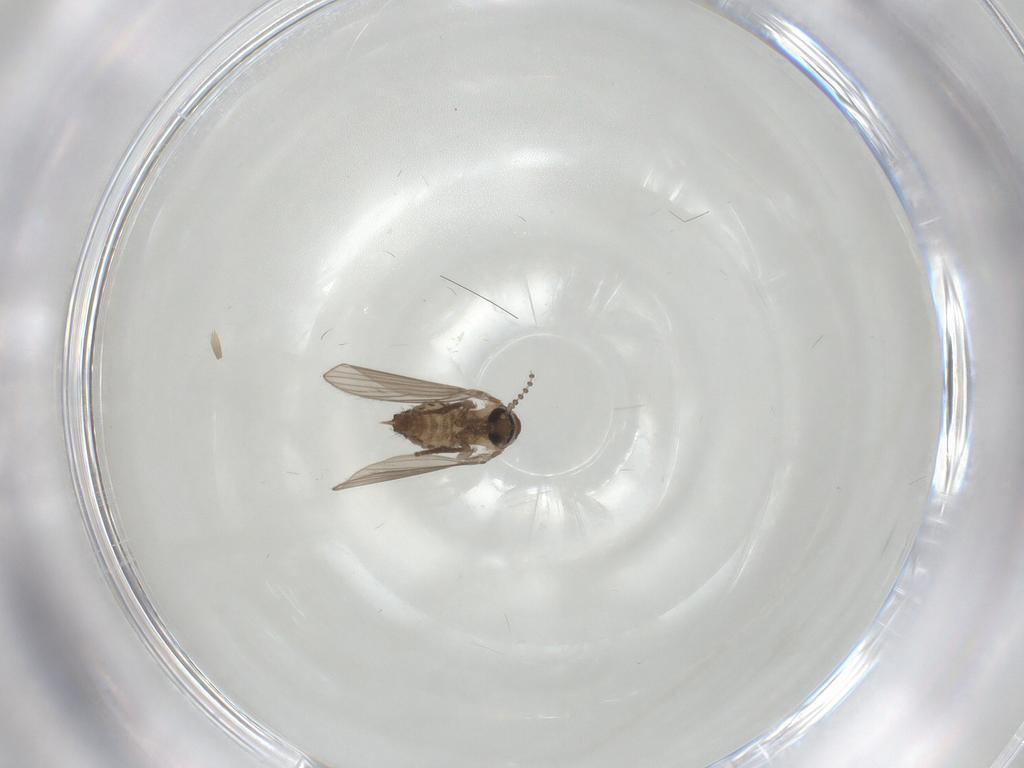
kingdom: Animalia
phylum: Arthropoda
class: Insecta
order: Diptera
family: Psychodidae
